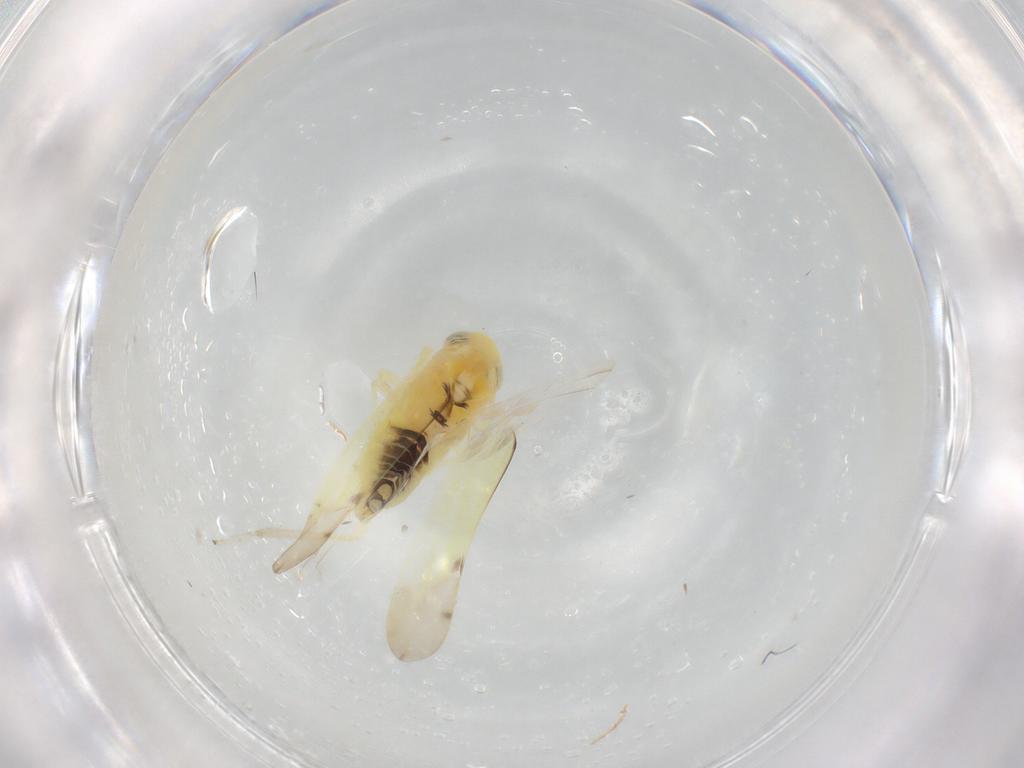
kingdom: Animalia
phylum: Arthropoda
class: Insecta
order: Hemiptera
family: Cicadellidae
